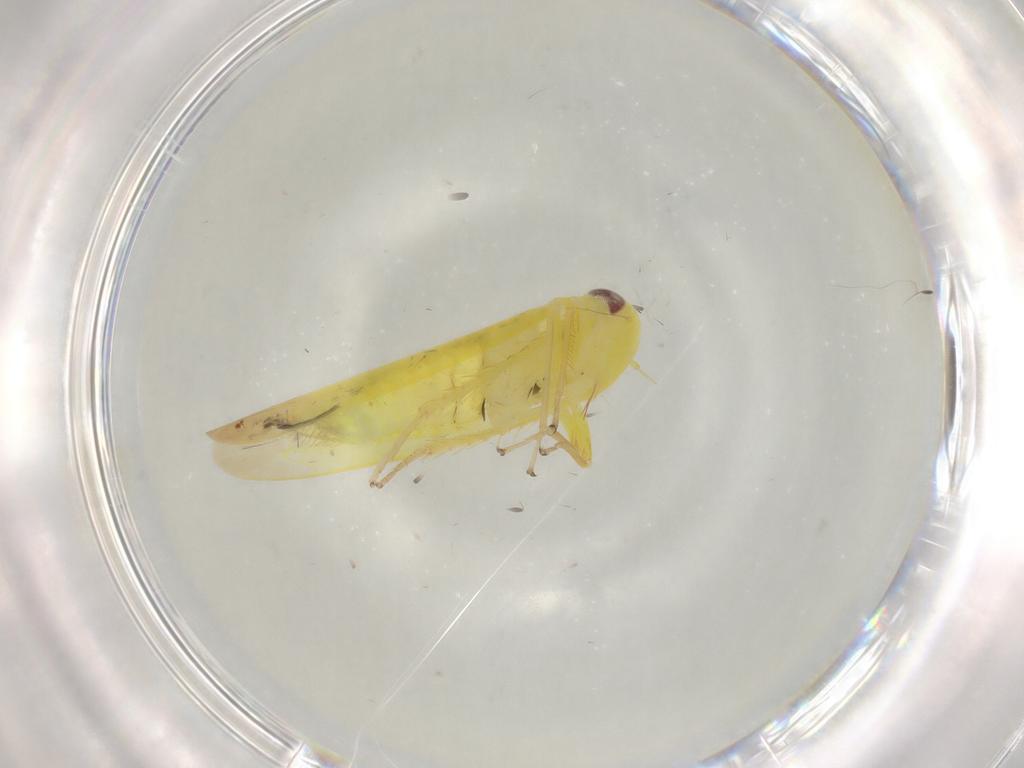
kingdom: Animalia
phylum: Arthropoda
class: Insecta
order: Hemiptera
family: Cicadellidae
